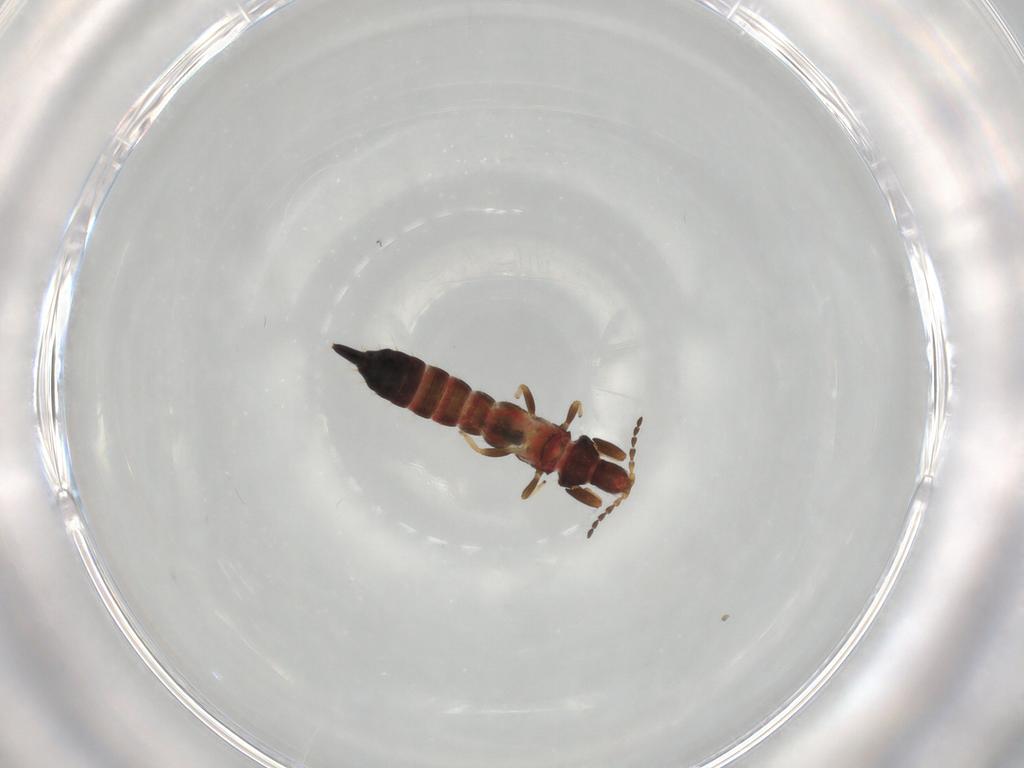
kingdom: Animalia
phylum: Arthropoda
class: Insecta
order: Thysanoptera
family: Phlaeothripidae
